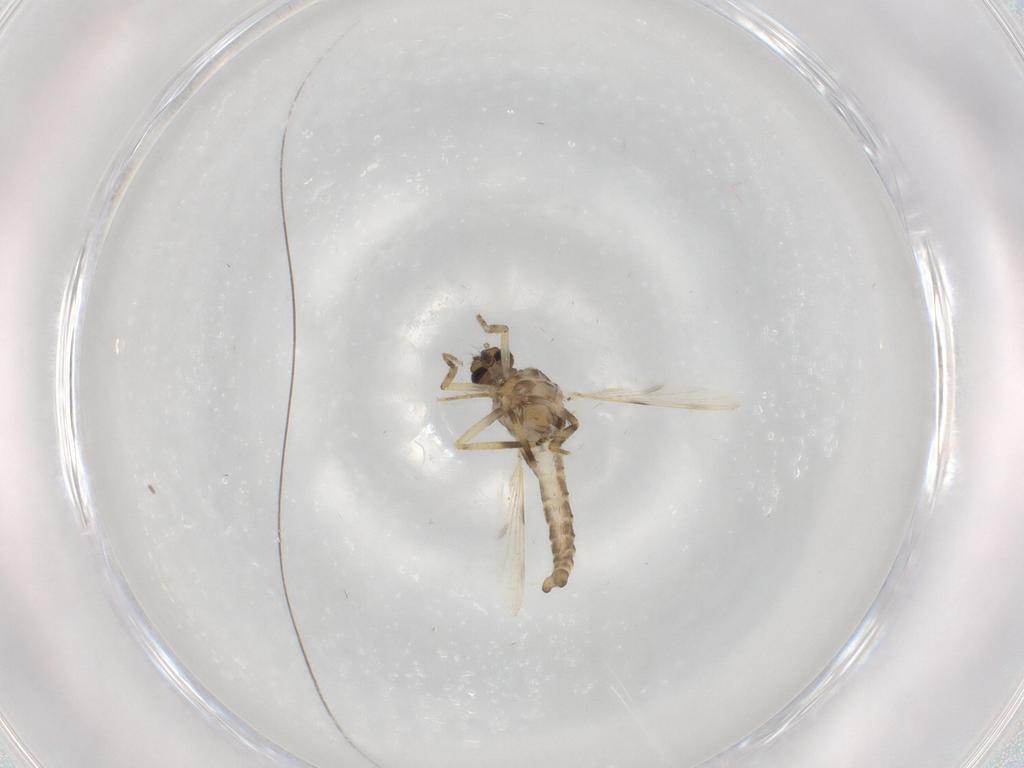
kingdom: Animalia
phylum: Arthropoda
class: Insecta
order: Diptera
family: Ceratopogonidae
